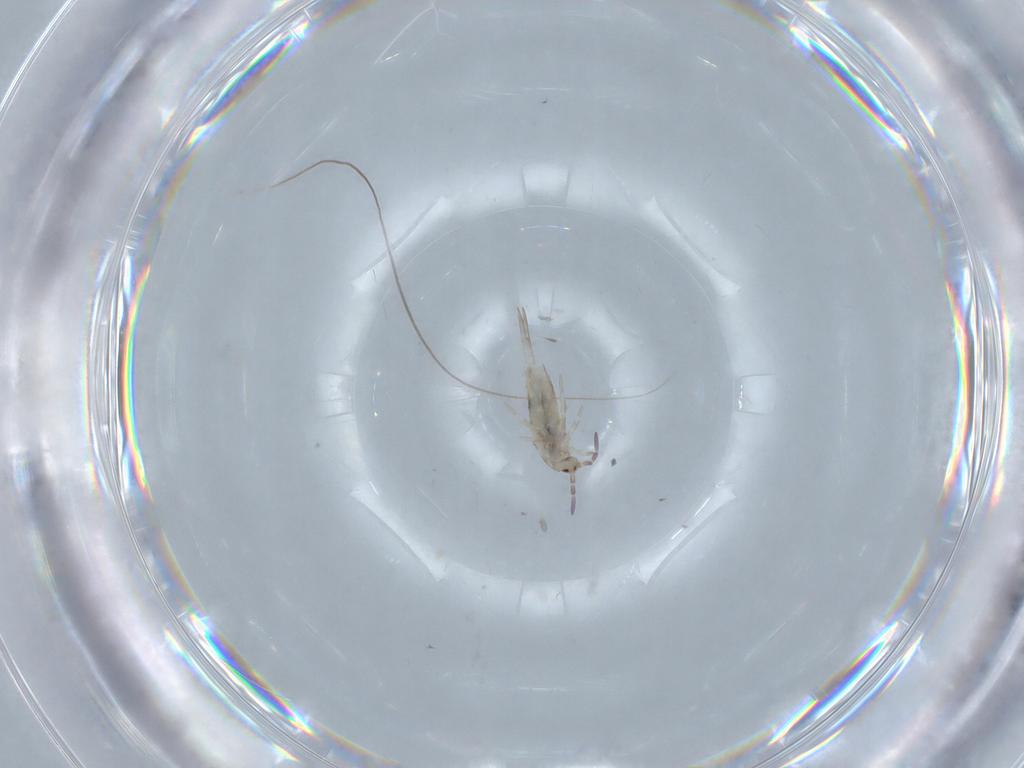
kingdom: Animalia
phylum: Arthropoda
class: Collembola
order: Entomobryomorpha
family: Entomobryidae
